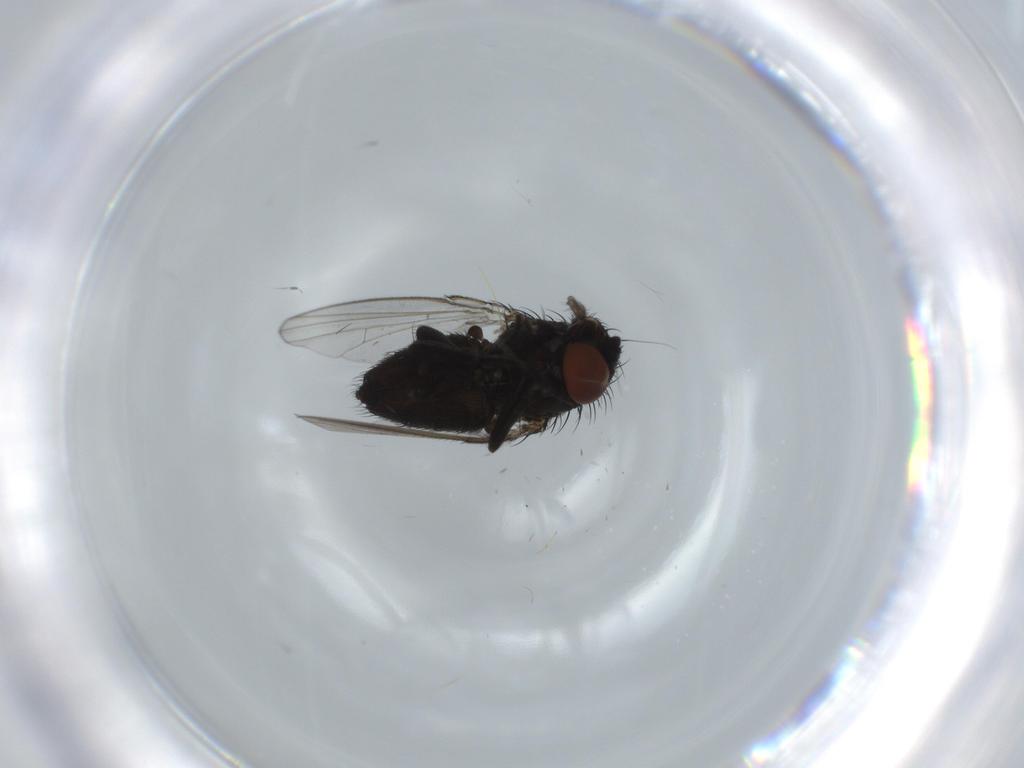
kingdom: Animalia
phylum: Arthropoda
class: Insecta
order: Diptera
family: Milichiidae
